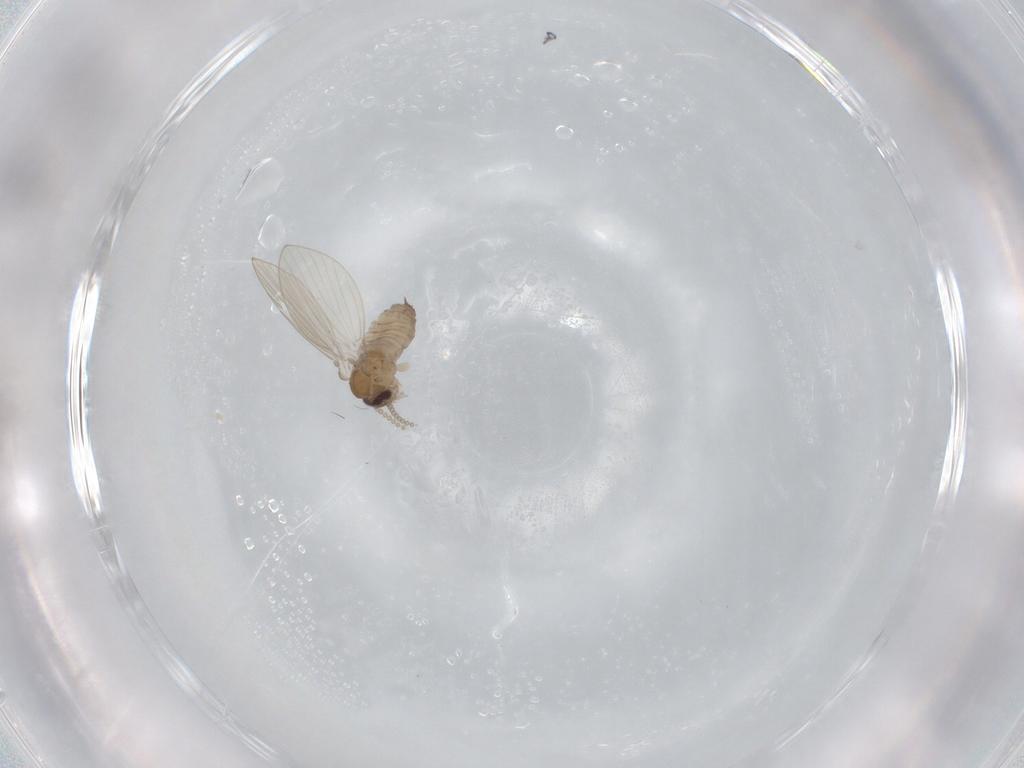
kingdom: Animalia
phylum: Arthropoda
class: Insecta
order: Diptera
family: Psychodidae
